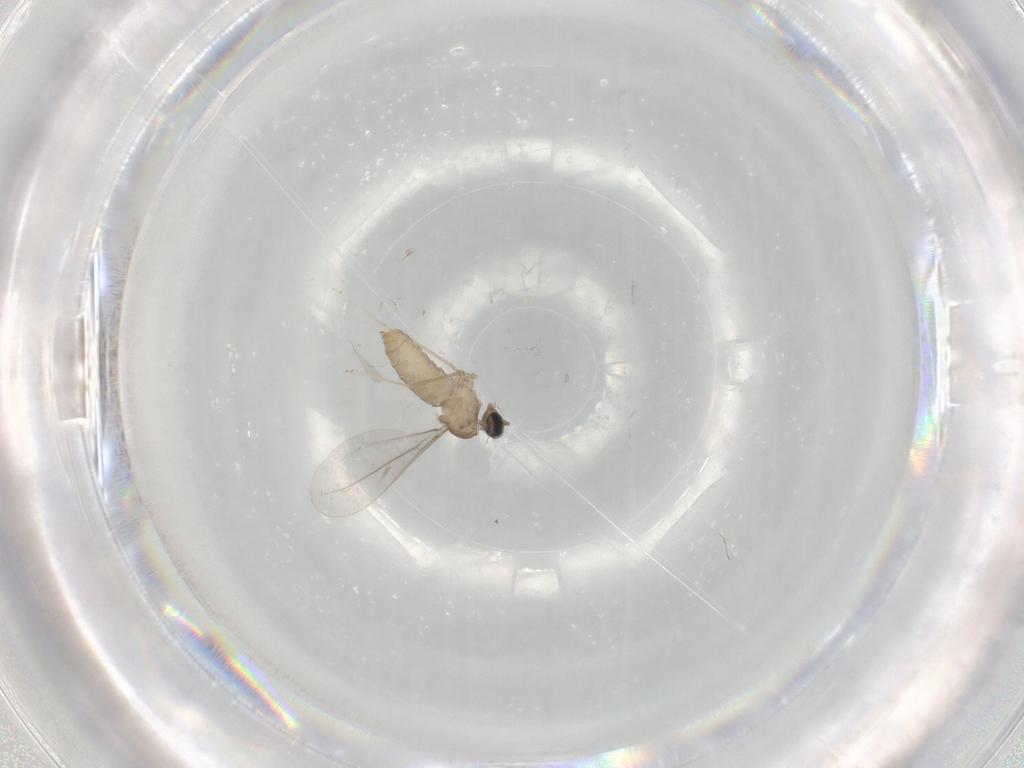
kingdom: Animalia
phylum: Arthropoda
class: Insecta
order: Diptera
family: Cecidomyiidae
